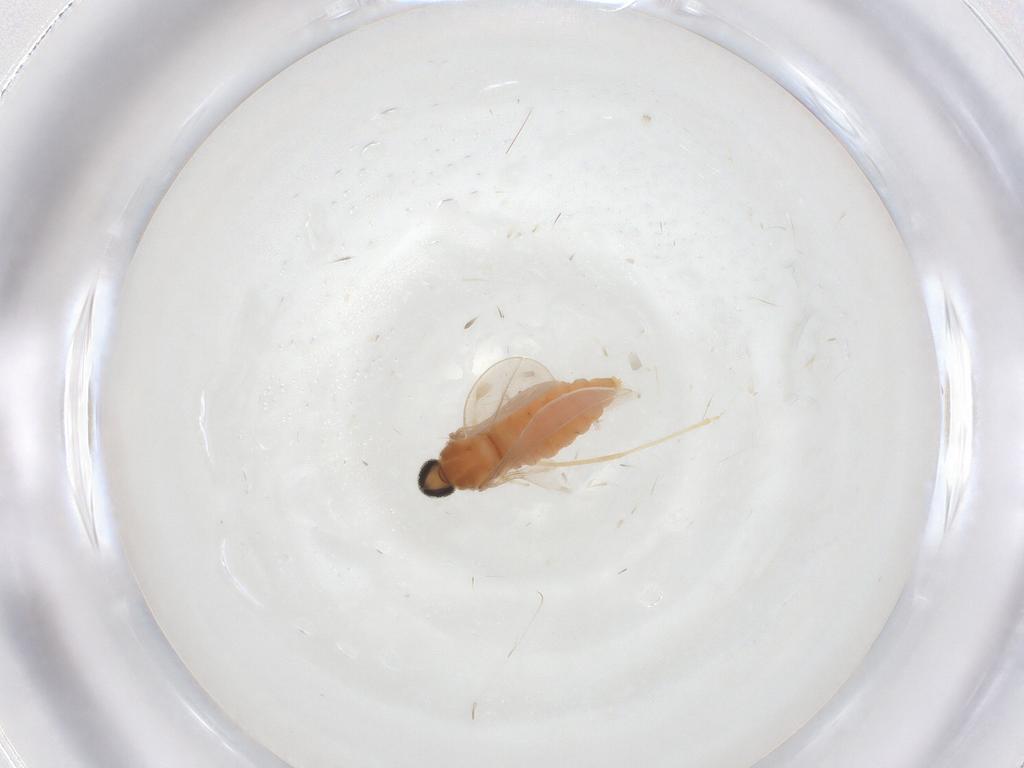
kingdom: Animalia
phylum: Arthropoda
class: Insecta
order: Diptera
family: Cecidomyiidae
